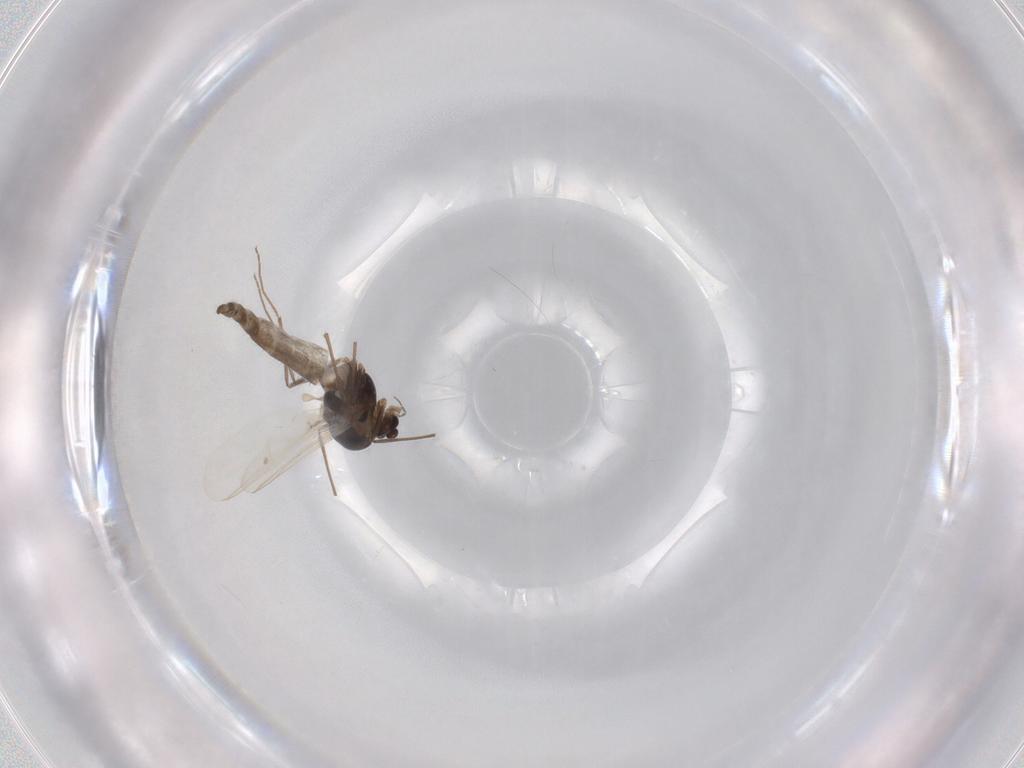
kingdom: Animalia
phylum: Arthropoda
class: Insecta
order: Diptera
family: Chironomidae
